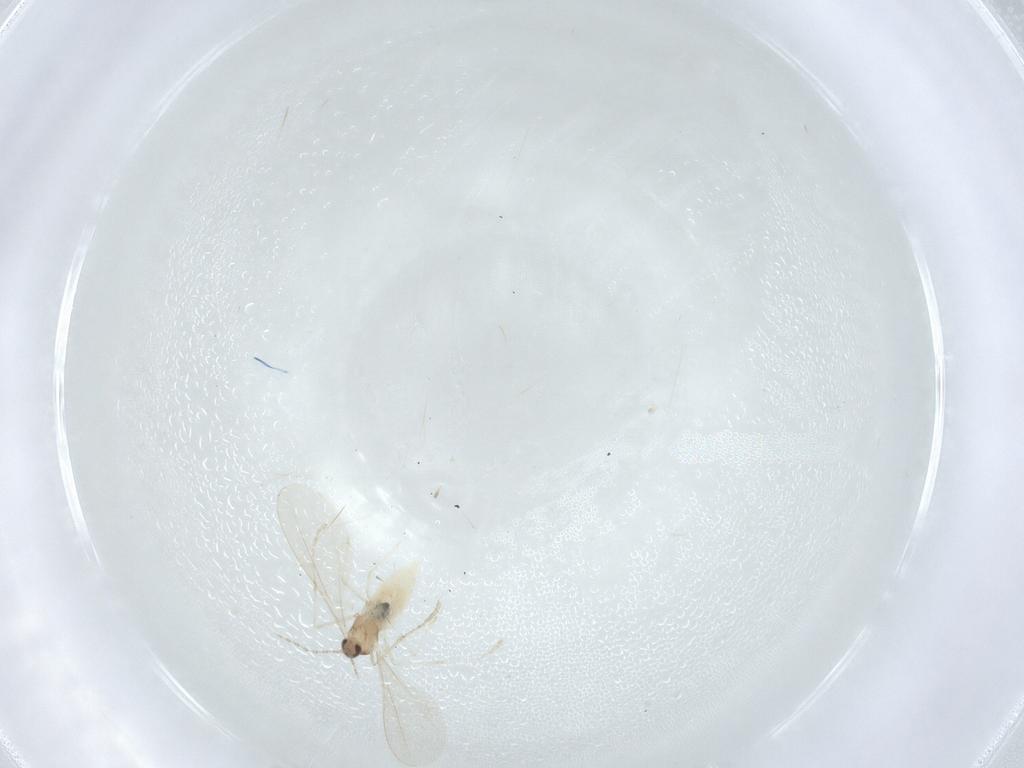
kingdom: Animalia
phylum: Arthropoda
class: Insecta
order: Diptera
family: Cecidomyiidae
